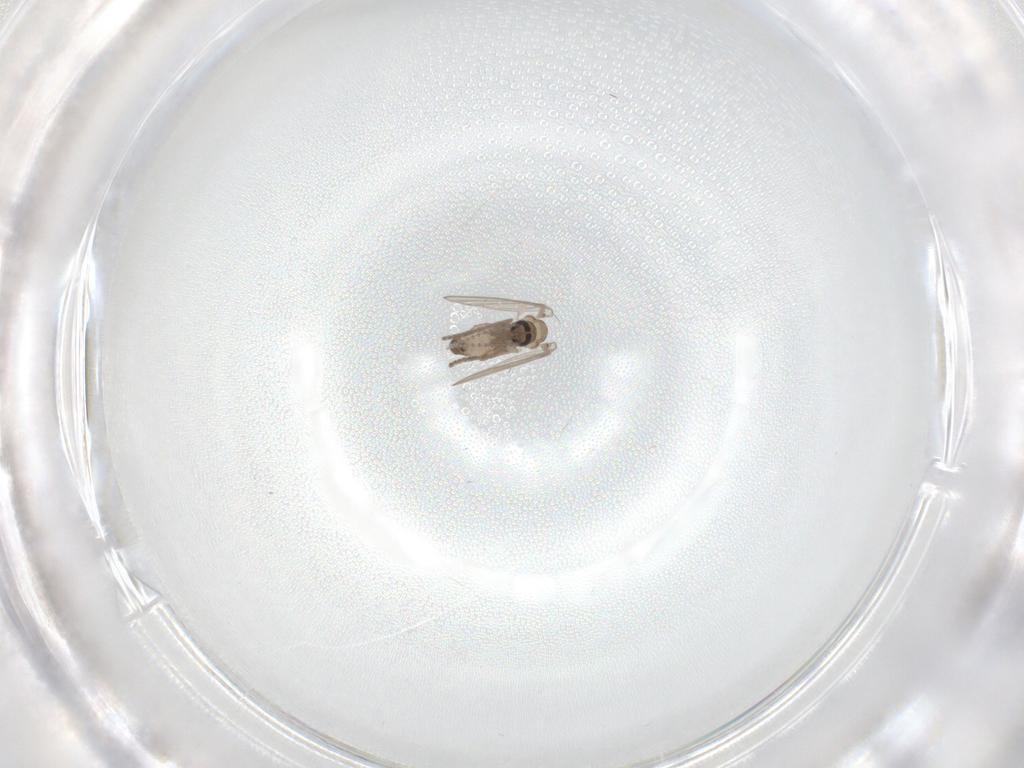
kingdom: Animalia
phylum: Arthropoda
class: Insecta
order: Diptera
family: Psychodidae
